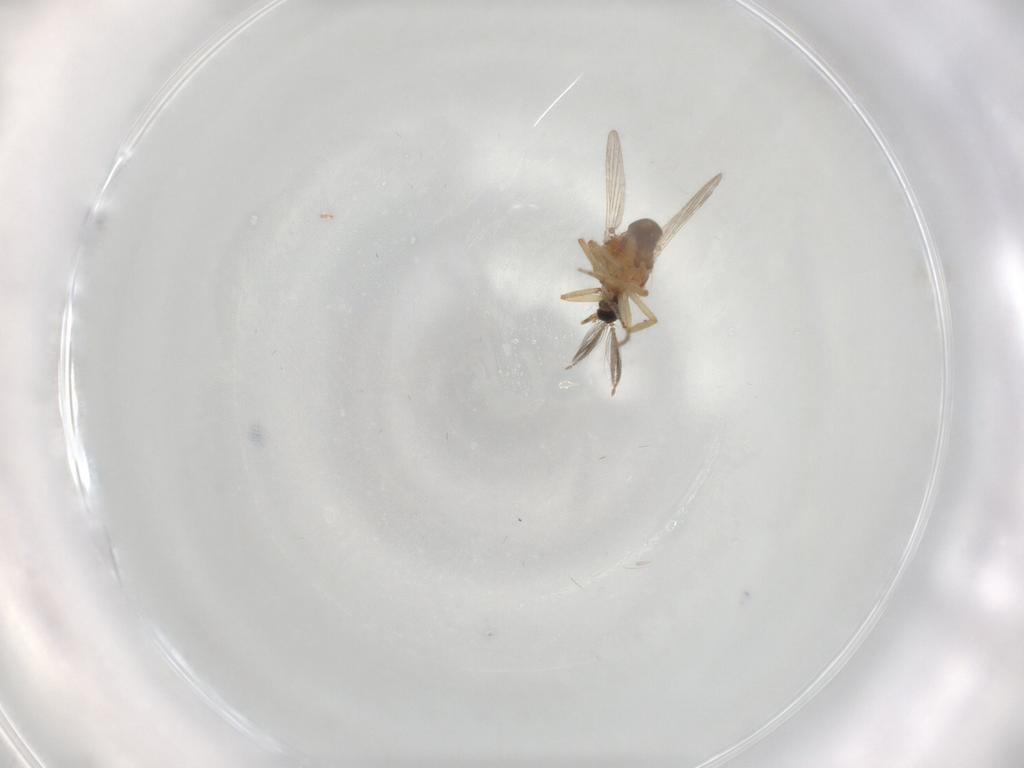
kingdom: Animalia
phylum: Arthropoda
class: Insecta
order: Diptera
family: Ceratopogonidae
